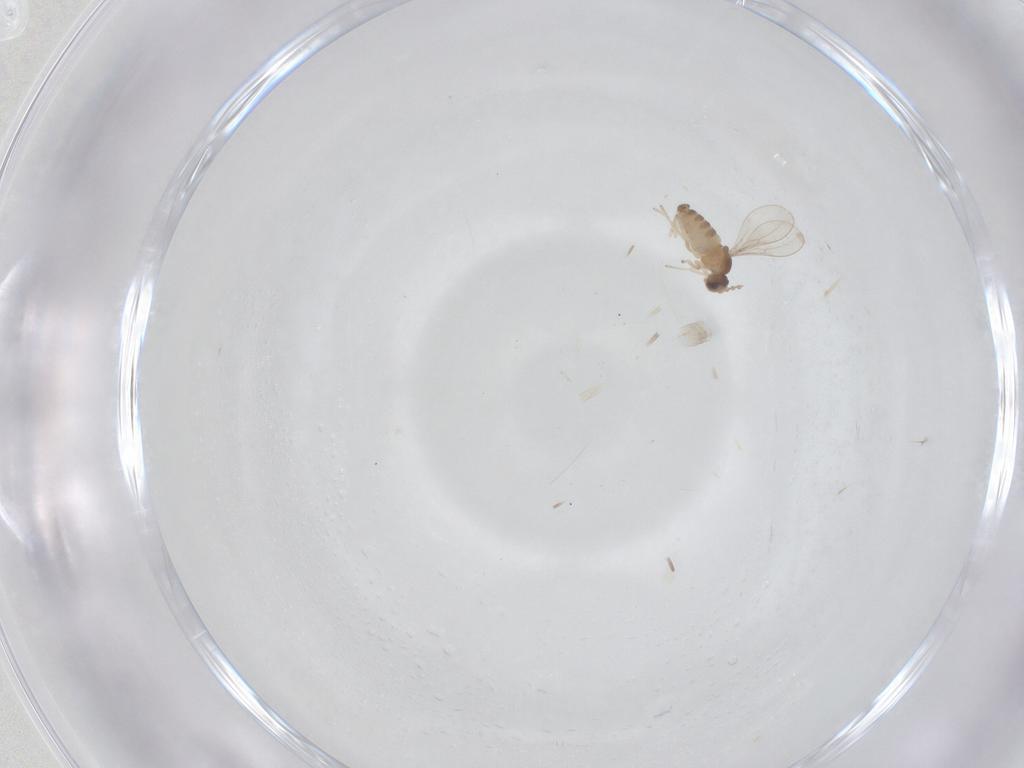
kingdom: Animalia
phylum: Arthropoda
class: Insecta
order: Diptera
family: Cecidomyiidae
